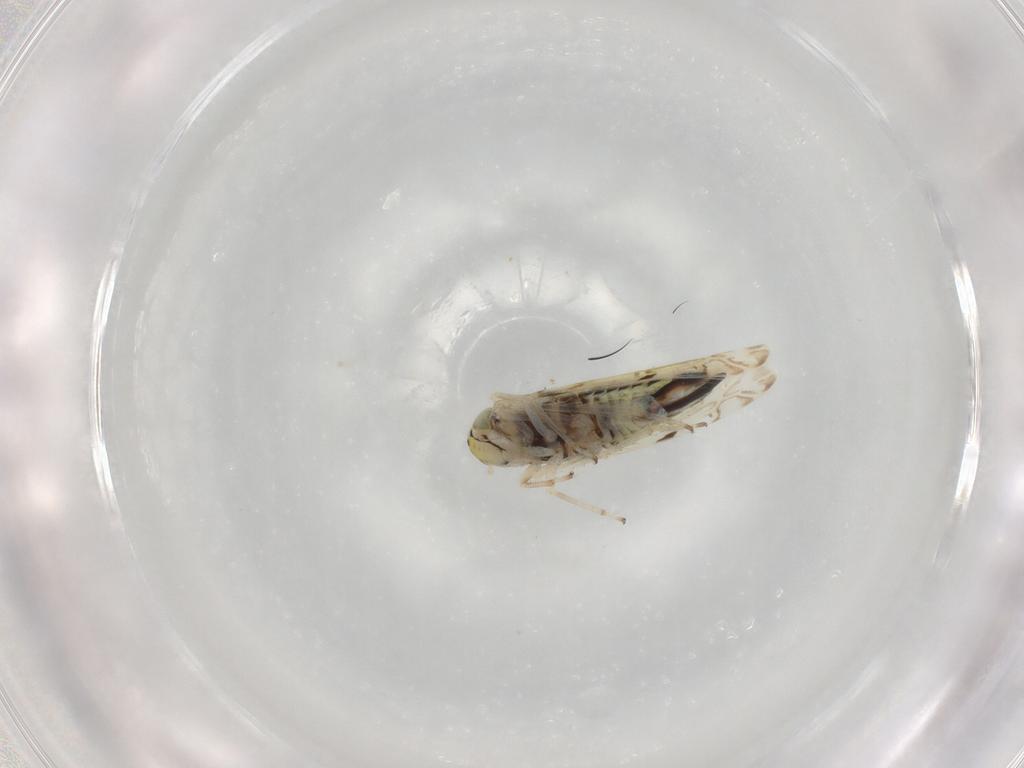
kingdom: Animalia
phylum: Arthropoda
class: Insecta
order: Hemiptera
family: Cicadellidae
